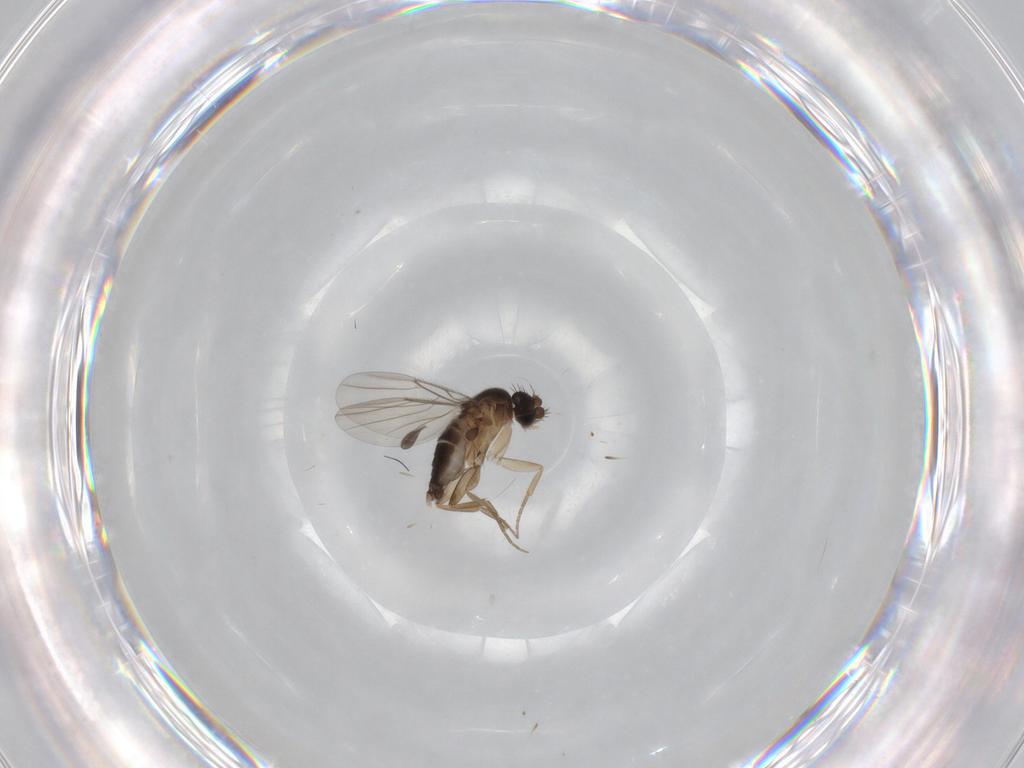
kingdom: Animalia
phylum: Arthropoda
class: Insecta
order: Diptera
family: Phoridae
